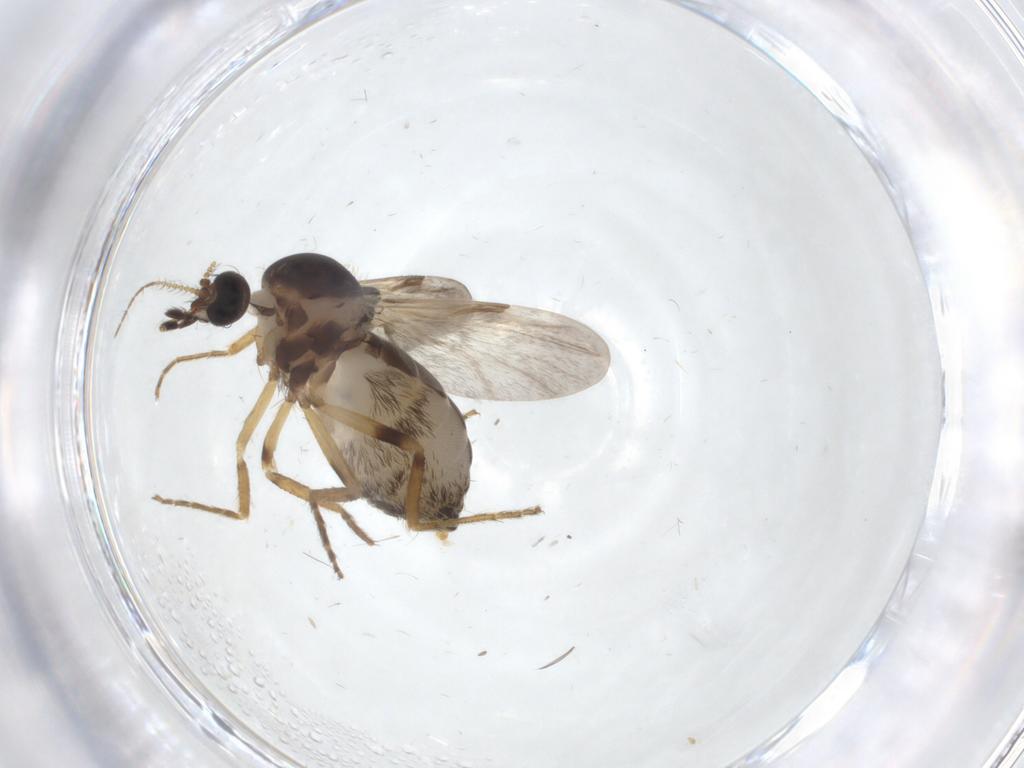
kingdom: Animalia
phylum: Arthropoda
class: Insecta
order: Diptera
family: Ceratopogonidae
